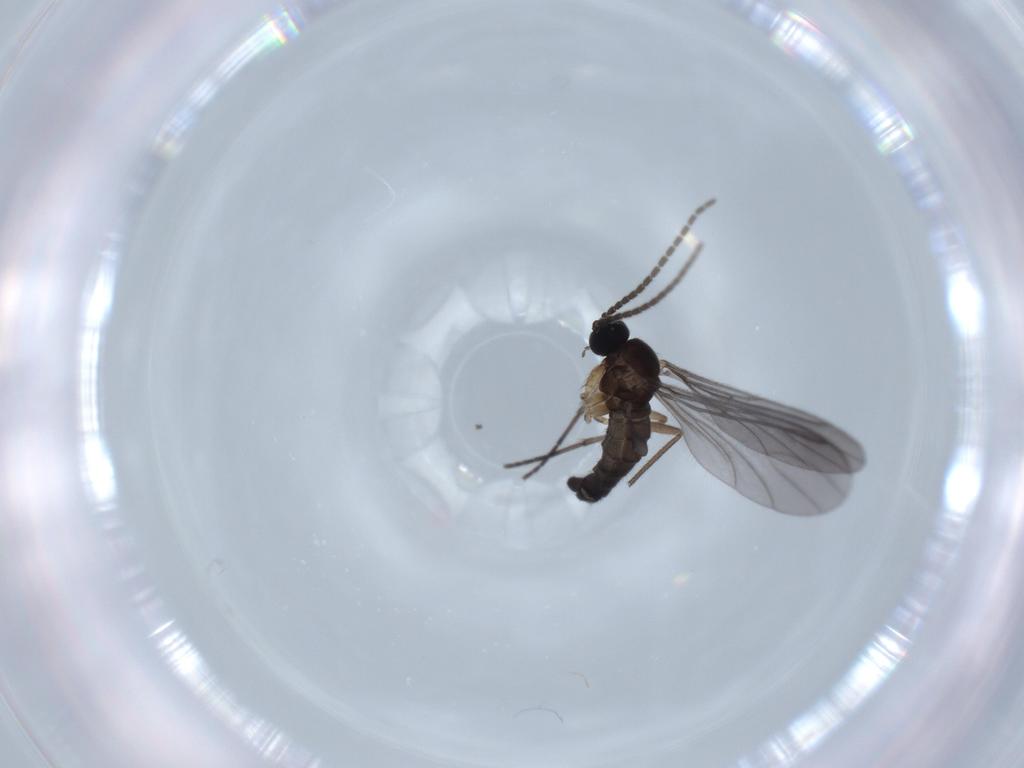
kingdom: Animalia
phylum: Arthropoda
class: Insecta
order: Diptera
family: Sciaridae
